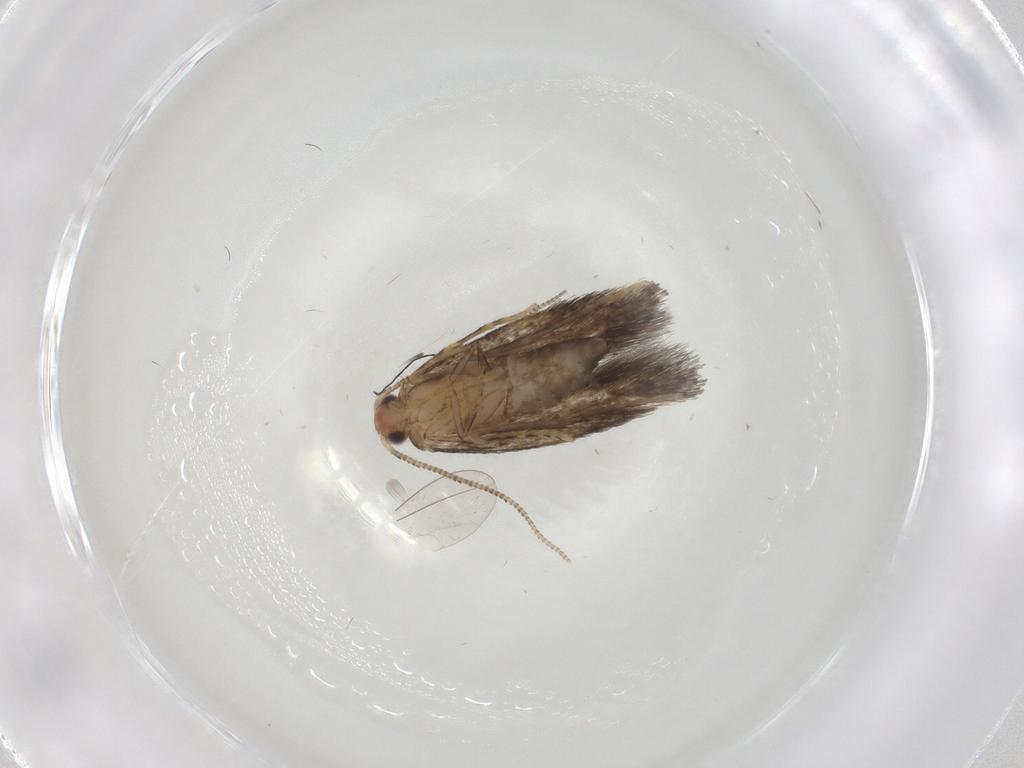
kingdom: Animalia
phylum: Arthropoda
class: Insecta
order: Lepidoptera
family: Tineidae
